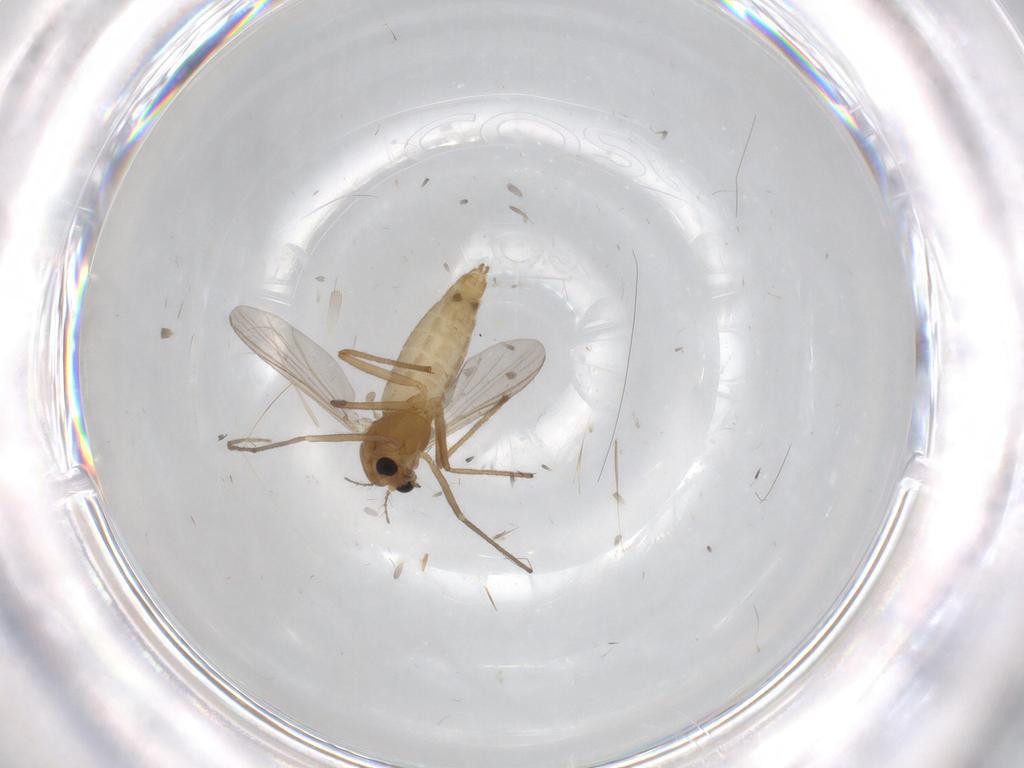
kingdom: Animalia
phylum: Arthropoda
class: Insecta
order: Diptera
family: Chironomidae
